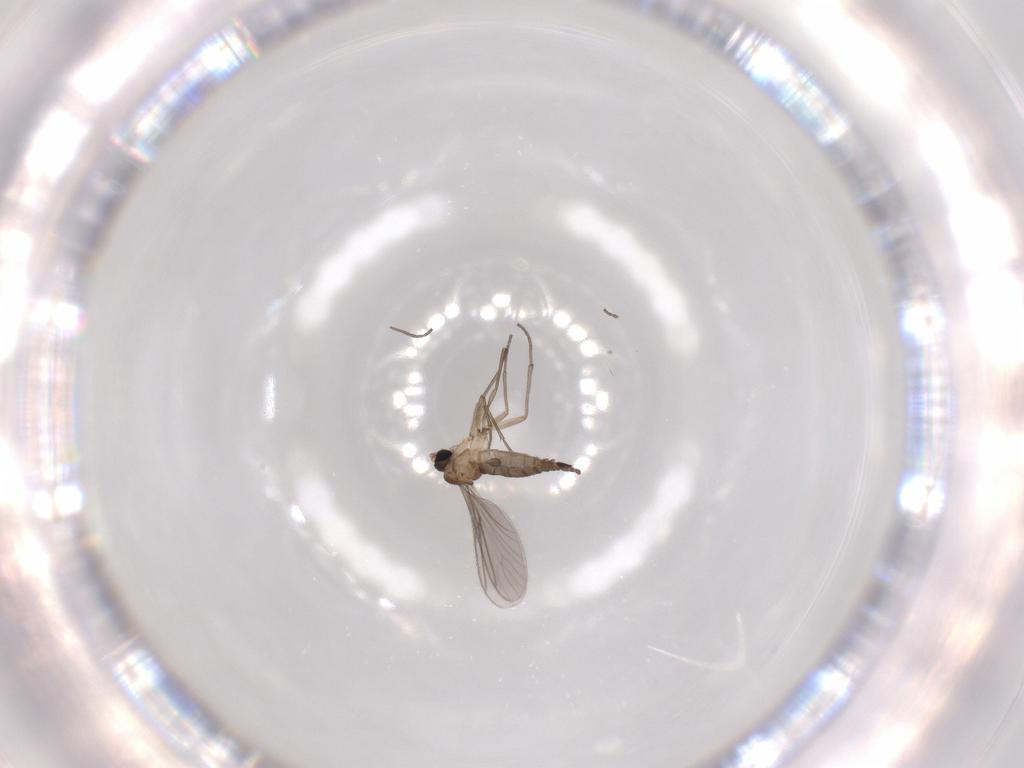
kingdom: Animalia
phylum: Arthropoda
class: Insecta
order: Diptera
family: Sciaridae
